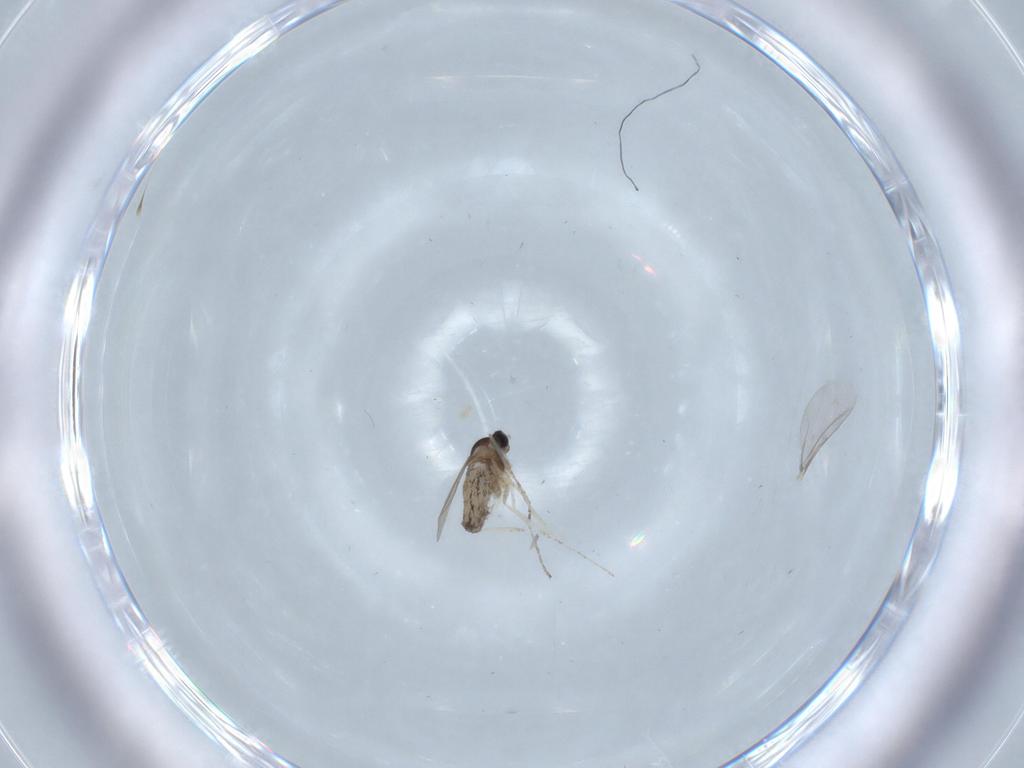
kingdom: Animalia
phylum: Arthropoda
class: Insecta
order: Diptera
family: Cecidomyiidae
